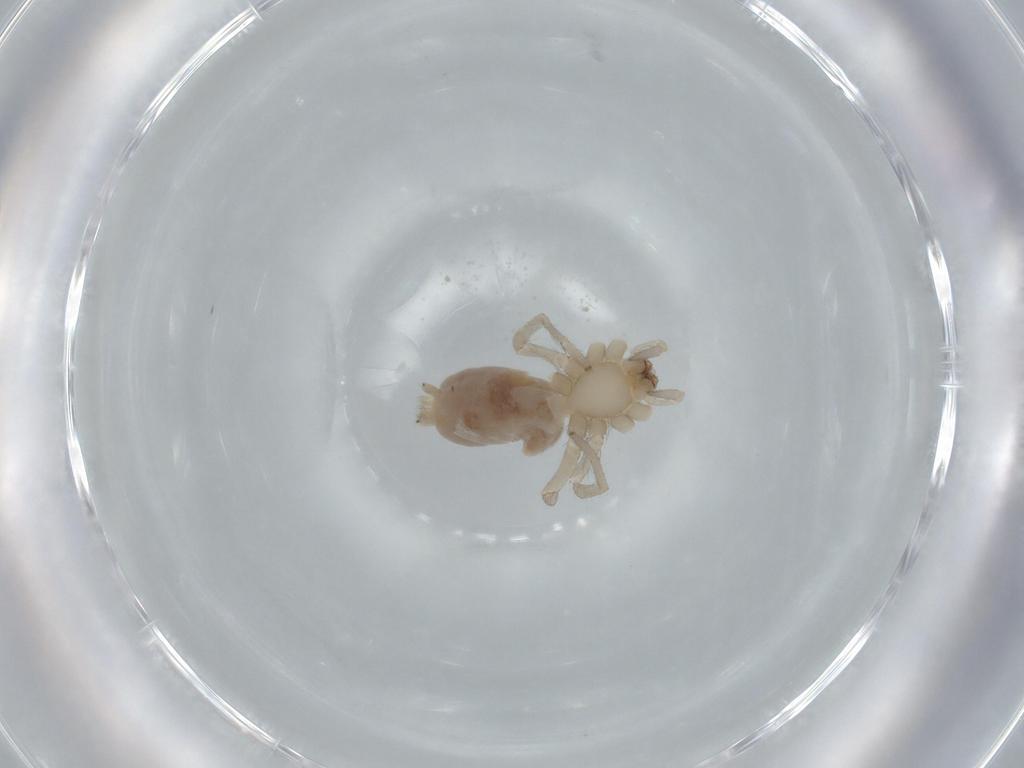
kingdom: Animalia
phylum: Arthropoda
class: Arachnida
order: Araneae
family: Gnaphosidae
